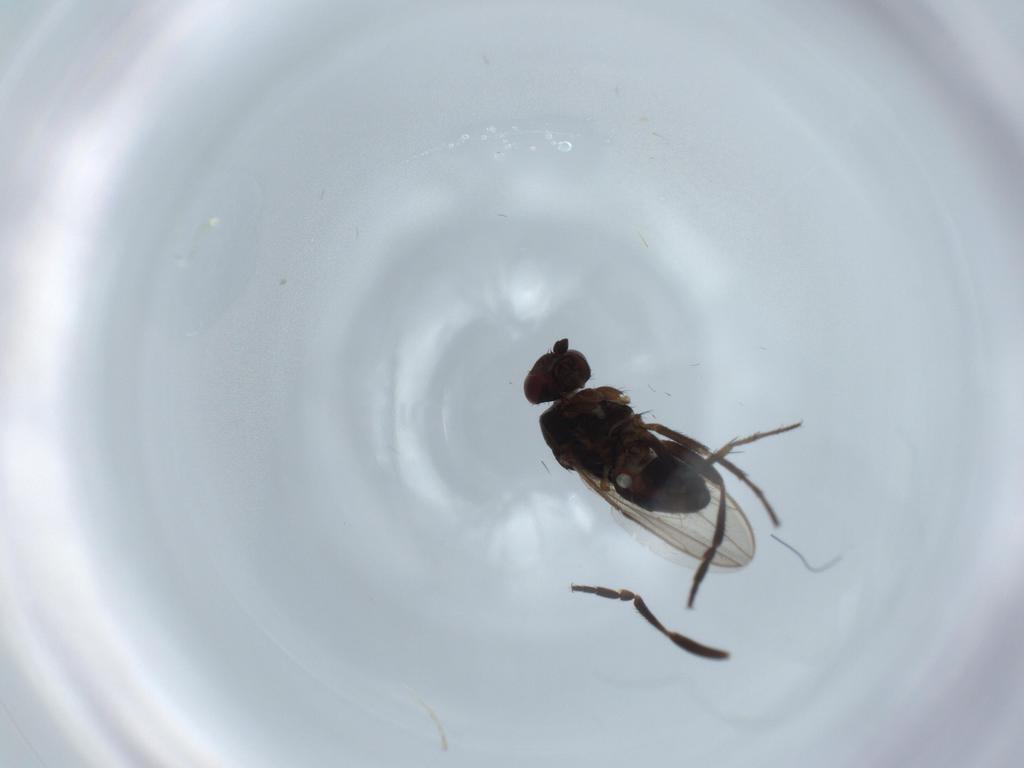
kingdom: Animalia
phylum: Arthropoda
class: Insecta
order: Diptera
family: Sphaeroceridae
